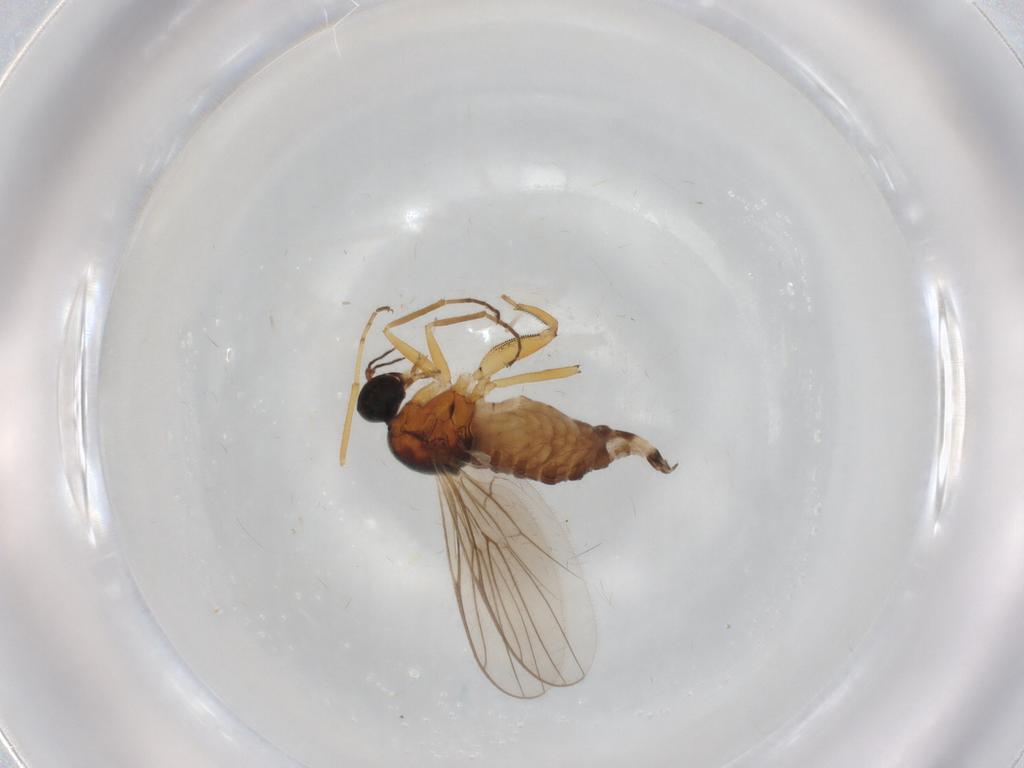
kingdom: Animalia
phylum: Arthropoda
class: Insecta
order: Diptera
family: Hybotidae
